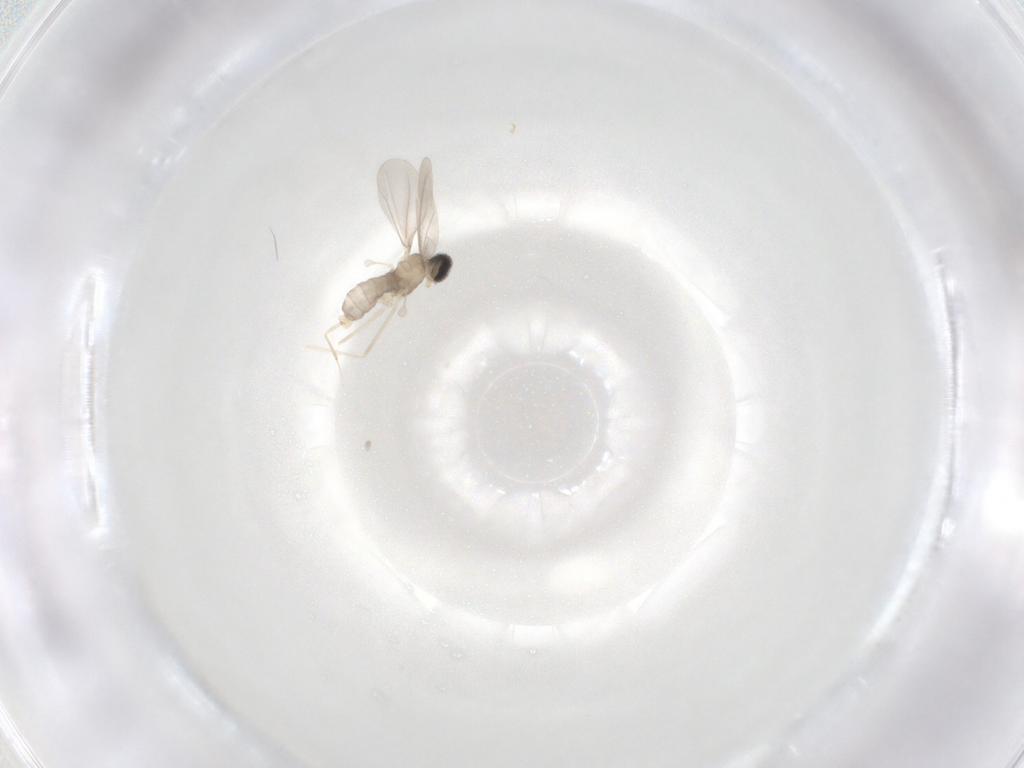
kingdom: Animalia
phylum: Arthropoda
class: Insecta
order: Diptera
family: Cecidomyiidae
